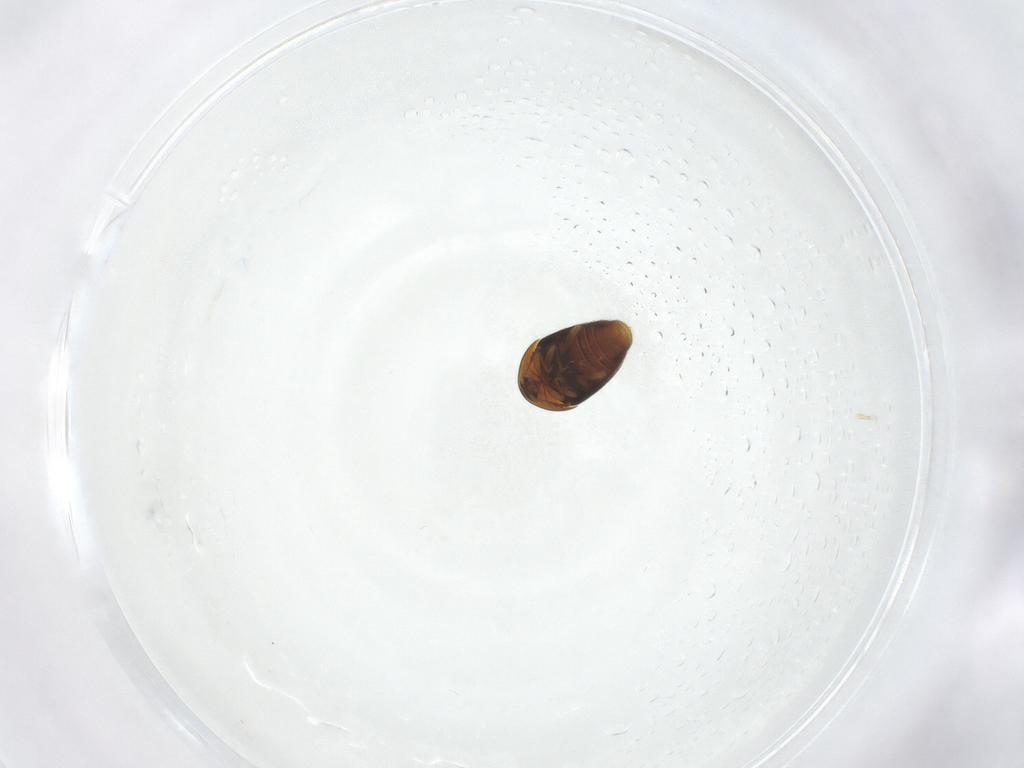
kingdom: Animalia
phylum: Arthropoda
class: Insecta
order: Coleoptera
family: Corylophidae
